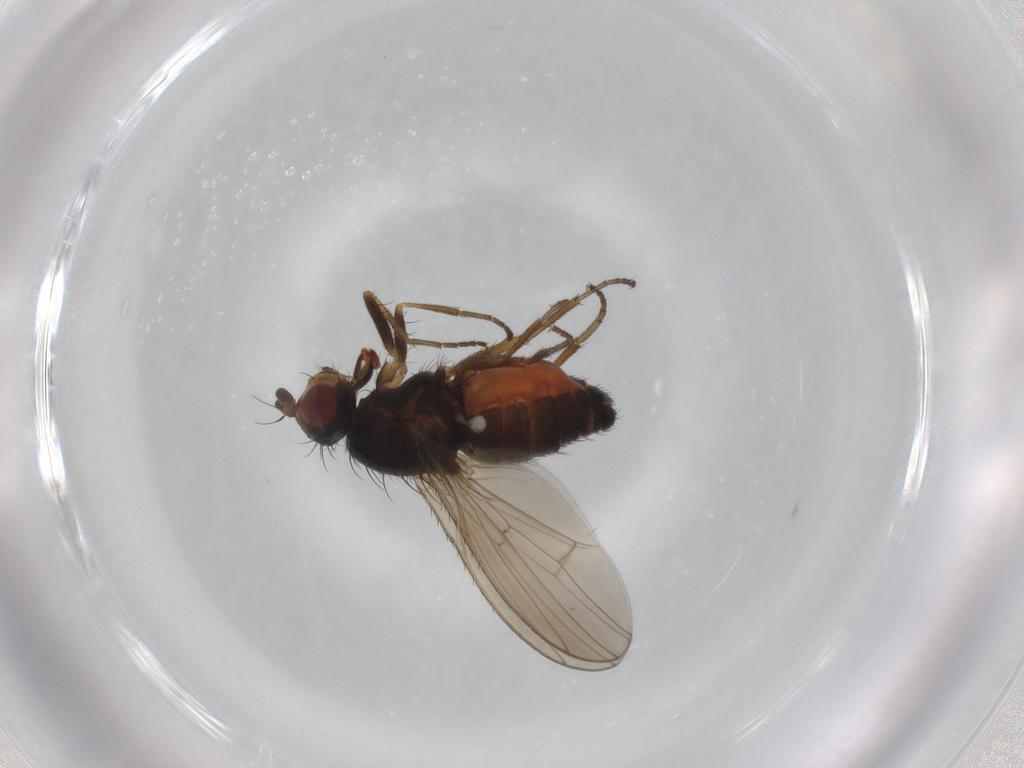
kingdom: Animalia
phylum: Arthropoda
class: Insecta
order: Diptera
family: Heleomyzidae
